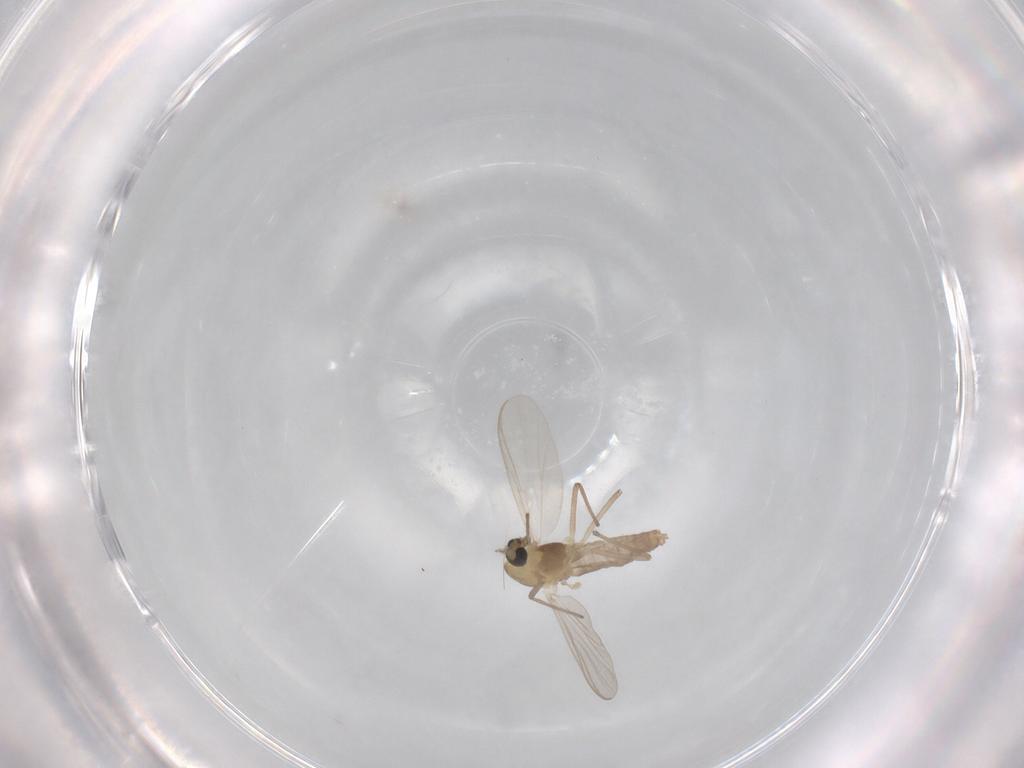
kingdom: Animalia
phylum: Arthropoda
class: Insecta
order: Diptera
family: Chironomidae
